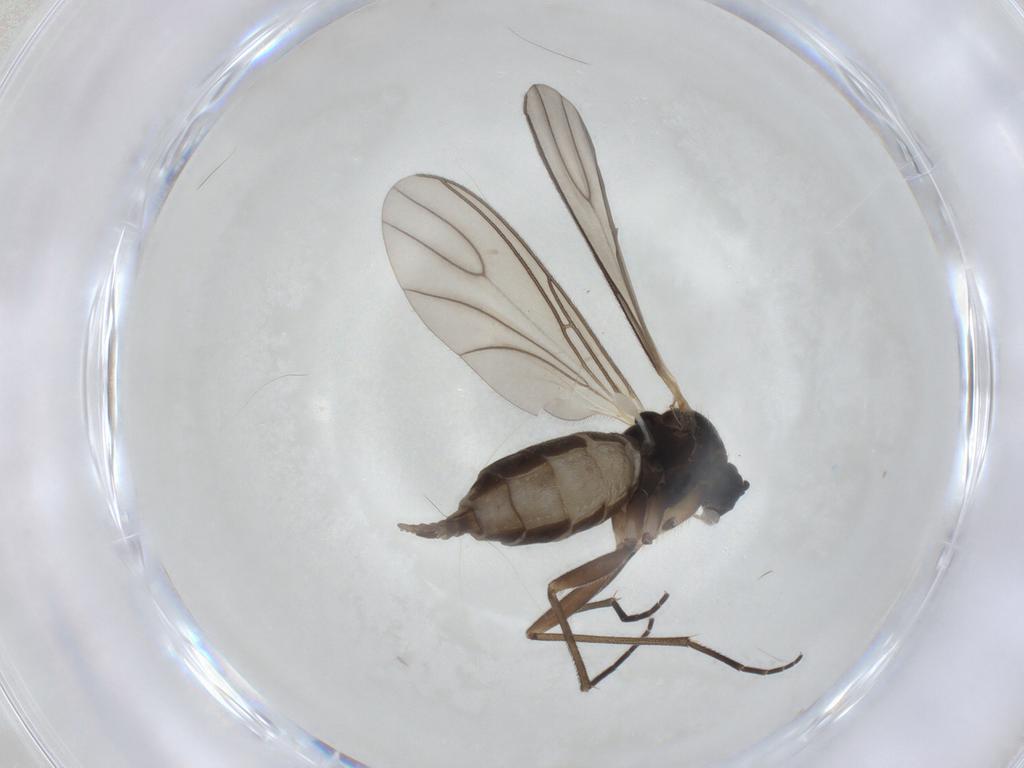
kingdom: Animalia
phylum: Arthropoda
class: Insecta
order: Diptera
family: Sciaridae
